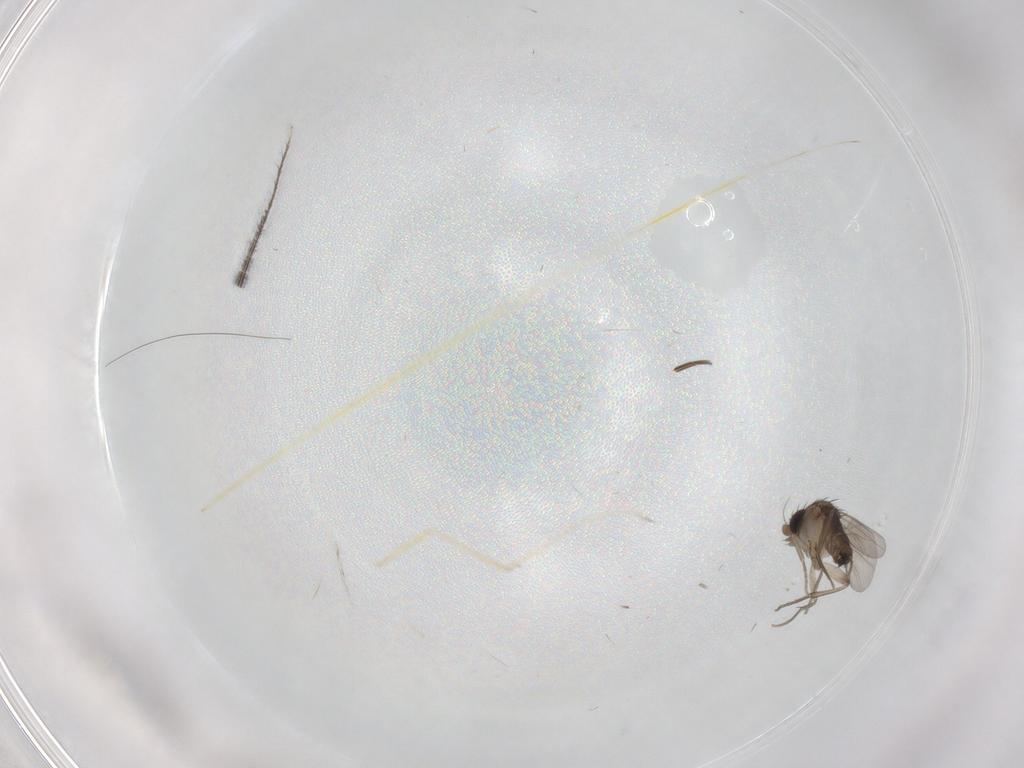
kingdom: Animalia
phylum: Arthropoda
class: Insecta
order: Diptera
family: Phoridae
